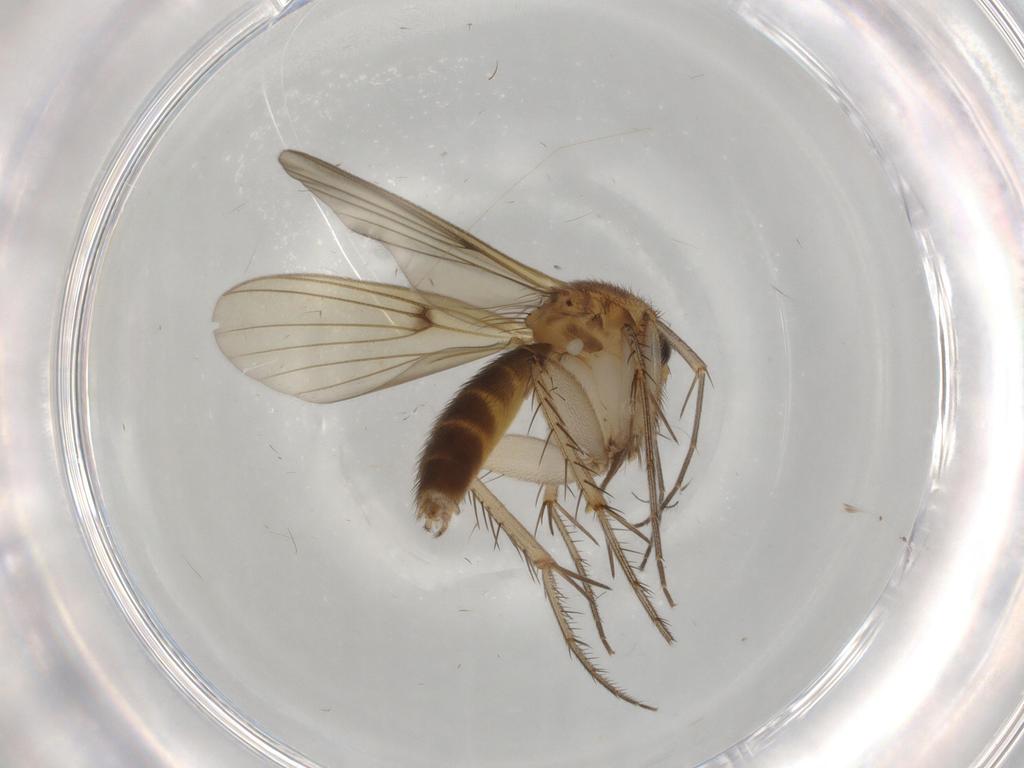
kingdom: Animalia
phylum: Arthropoda
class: Insecta
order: Diptera
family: Mycetophilidae
